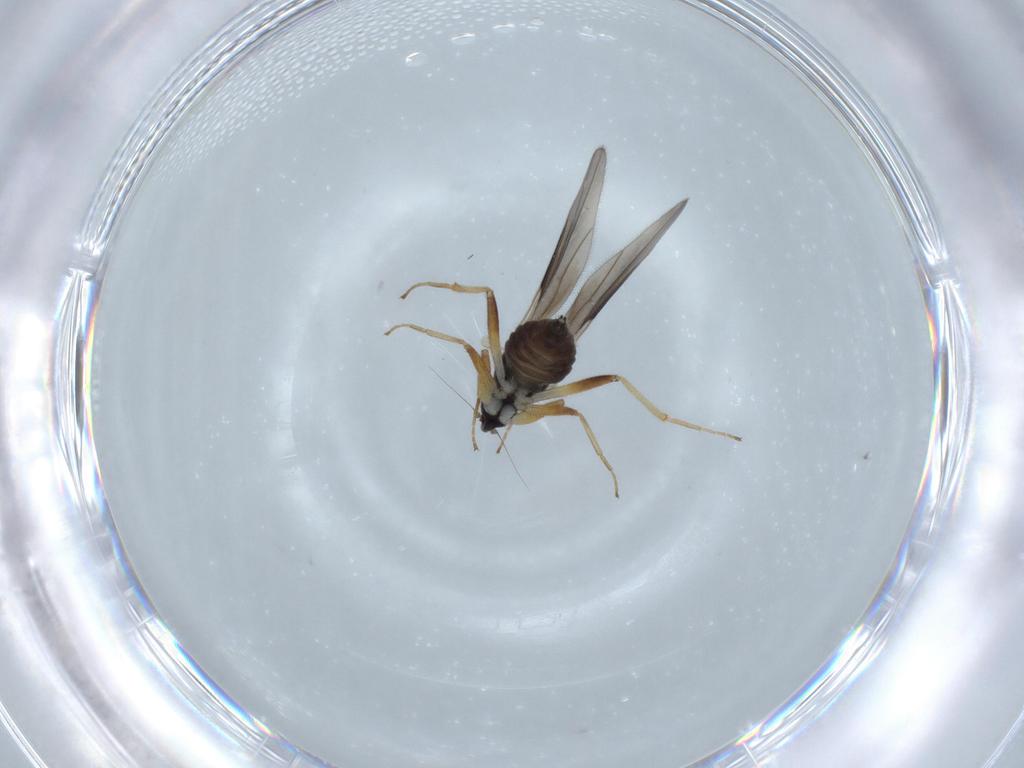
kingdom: Animalia
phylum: Arthropoda
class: Insecta
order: Diptera
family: Hybotidae
